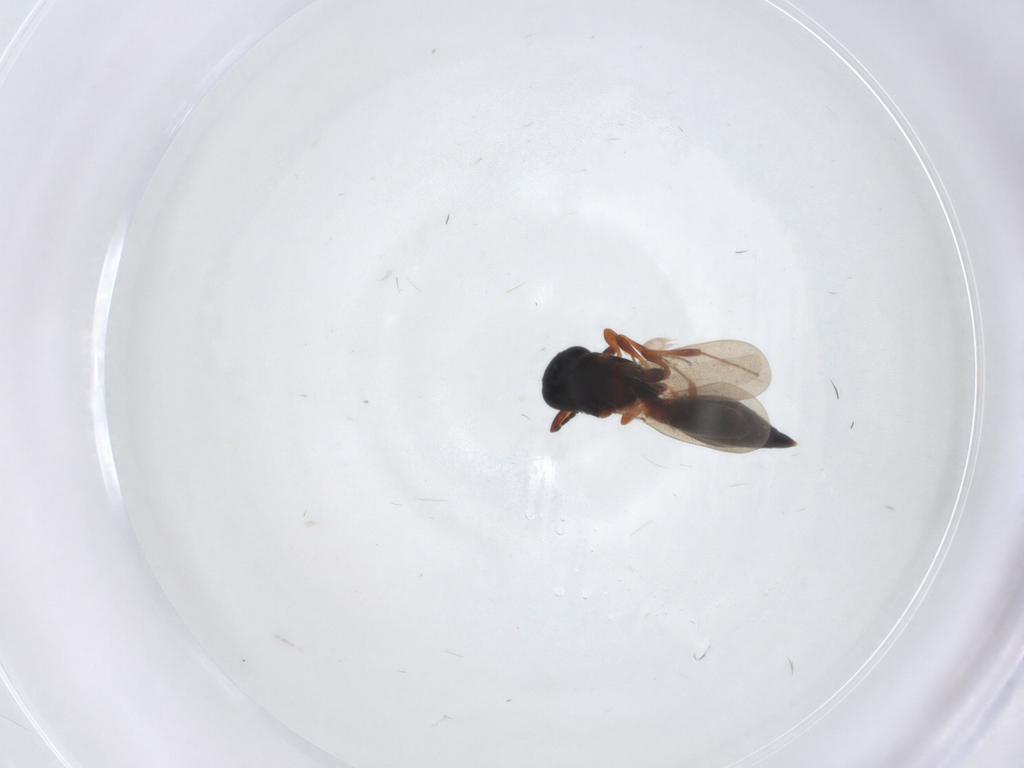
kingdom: Animalia
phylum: Arthropoda
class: Insecta
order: Hymenoptera
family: Platygastridae
